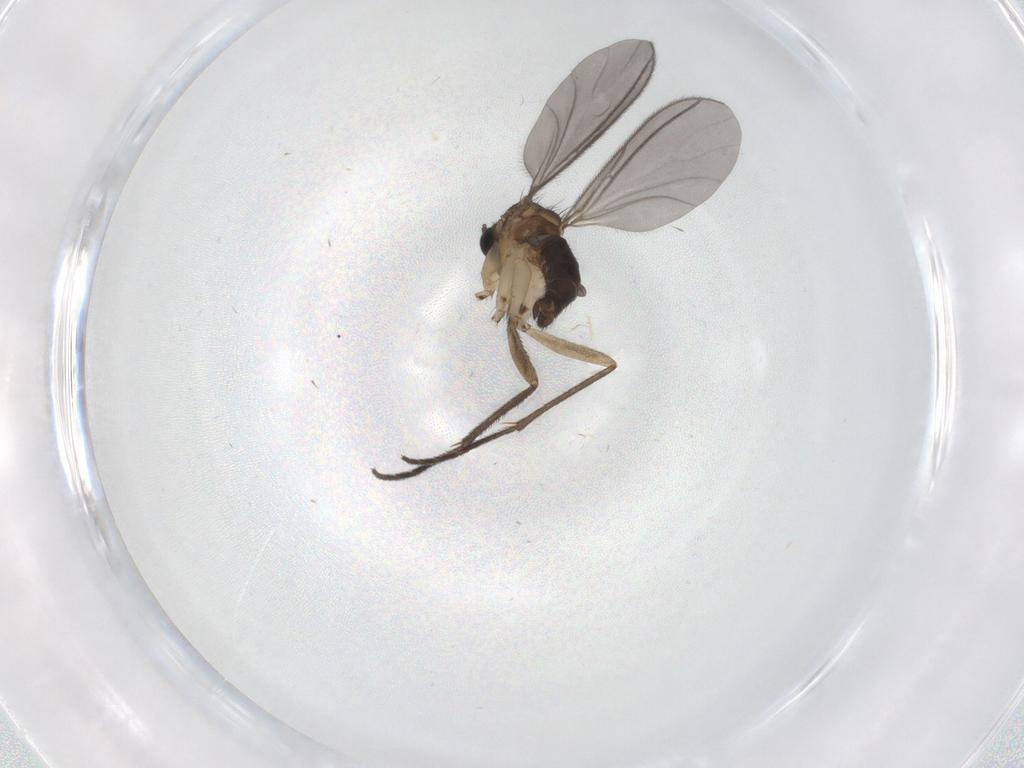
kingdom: Animalia
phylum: Arthropoda
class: Insecta
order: Diptera
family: Sciaridae
